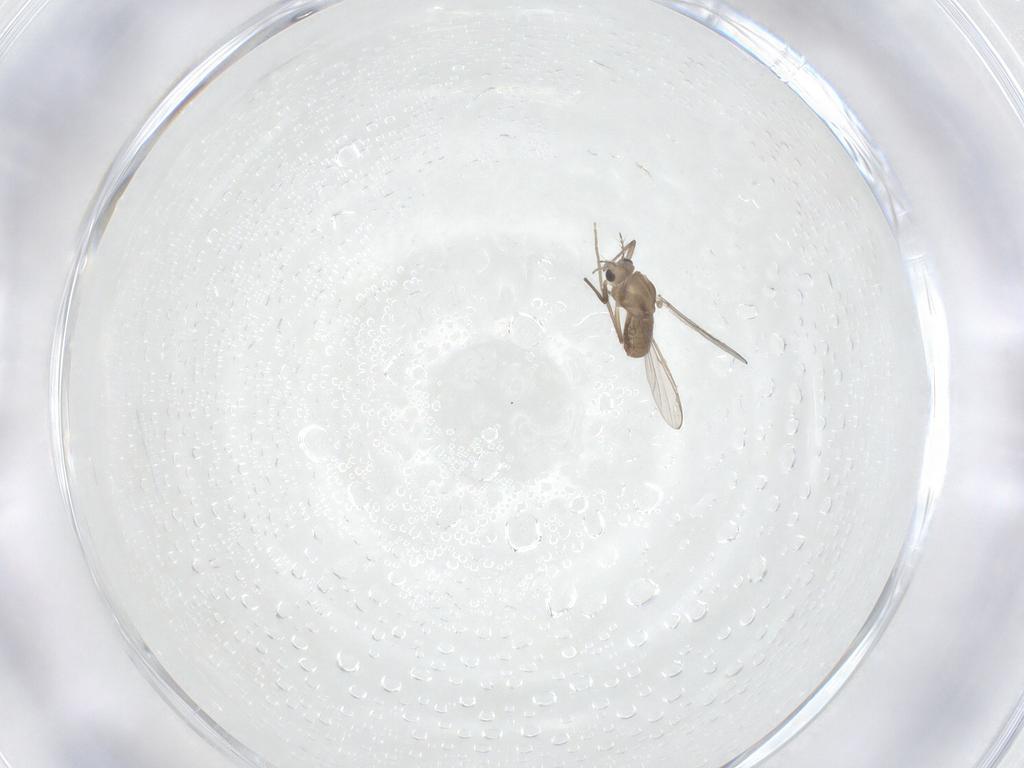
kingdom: Animalia
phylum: Arthropoda
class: Insecta
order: Diptera
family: Chironomidae
